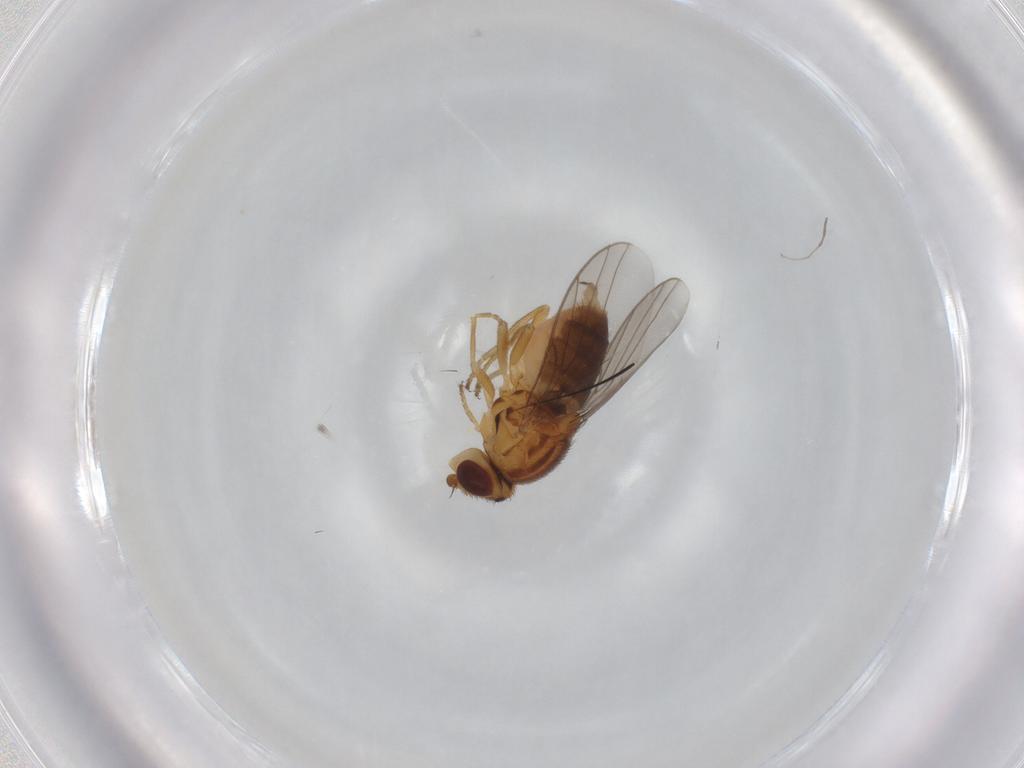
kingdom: Animalia
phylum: Arthropoda
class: Insecta
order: Diptera
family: Chloropidae
